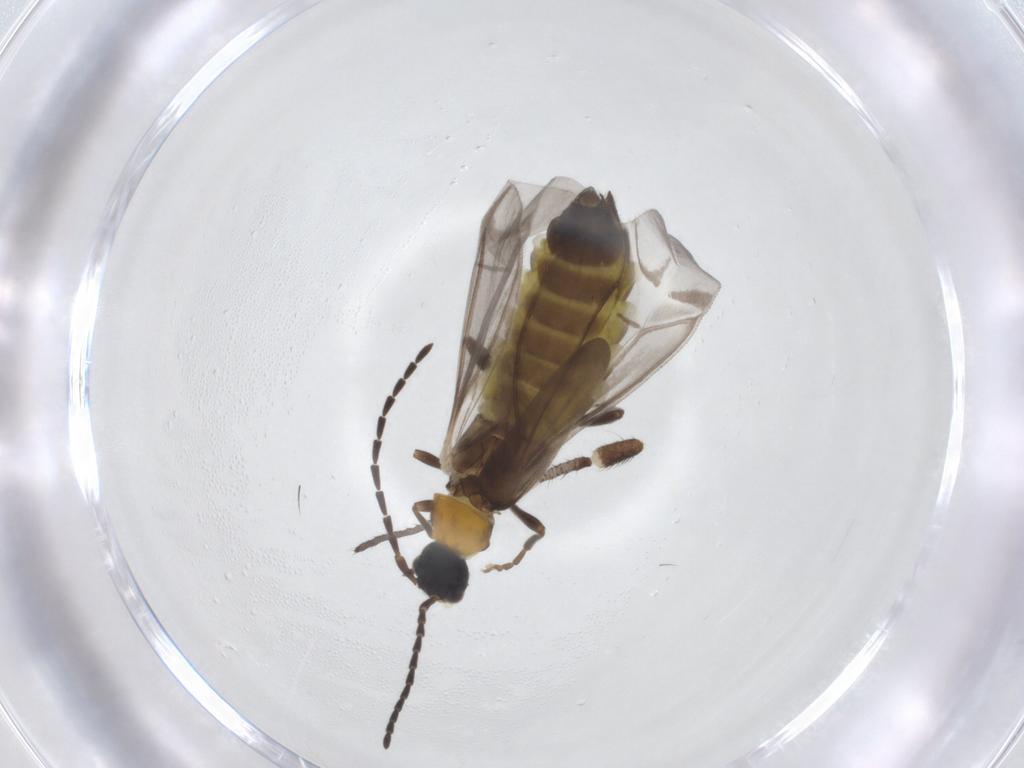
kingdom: Animalia
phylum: Arthropoda
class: Insecta
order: Coleoptera
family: Cantharidae
